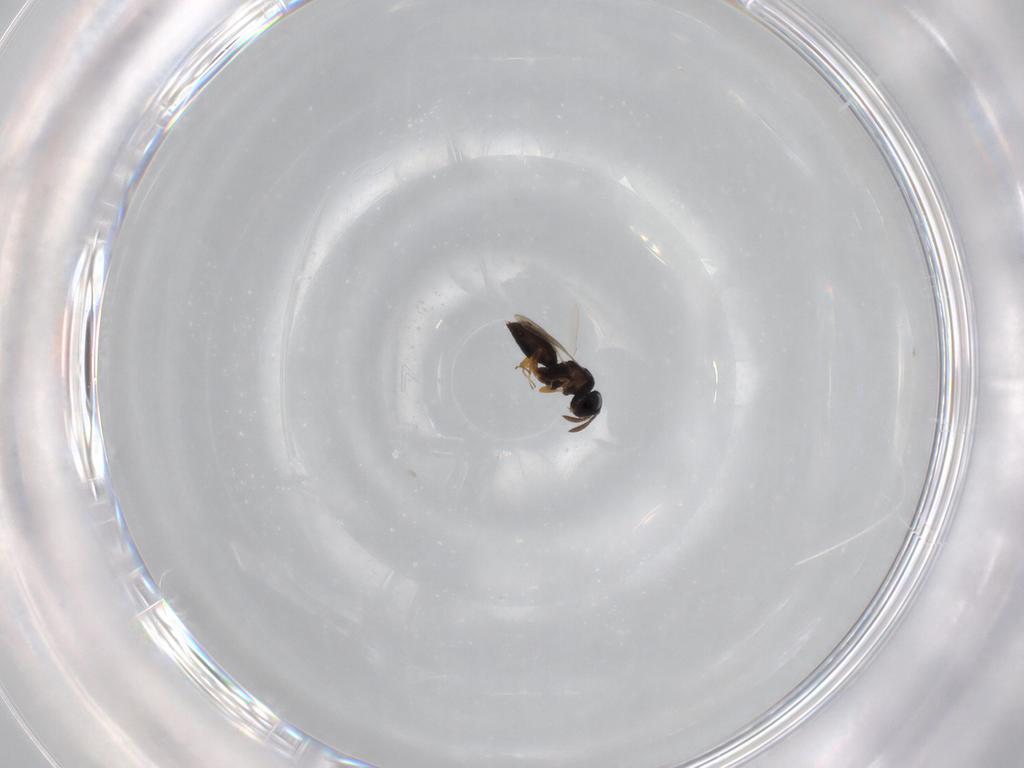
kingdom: Animalia
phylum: Arthropoda
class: Insecta
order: Hymenoptera
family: Scelionidae
